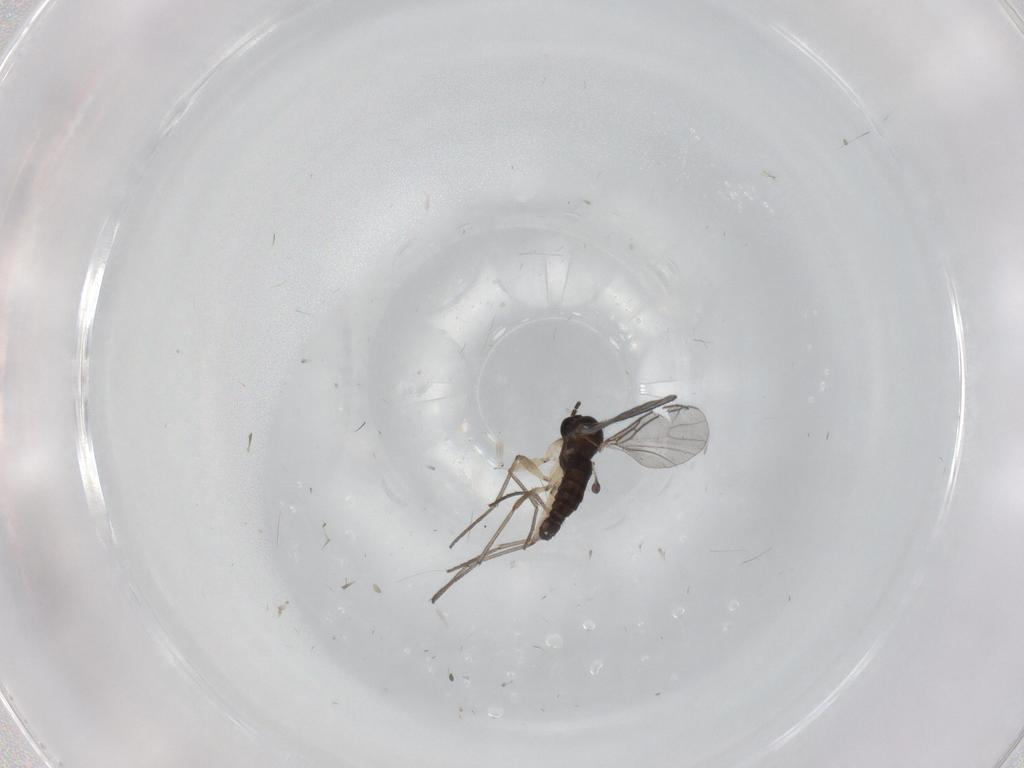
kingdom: Animalia
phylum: Arthropoda
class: Insecta
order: Diptera
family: Sciaridae
